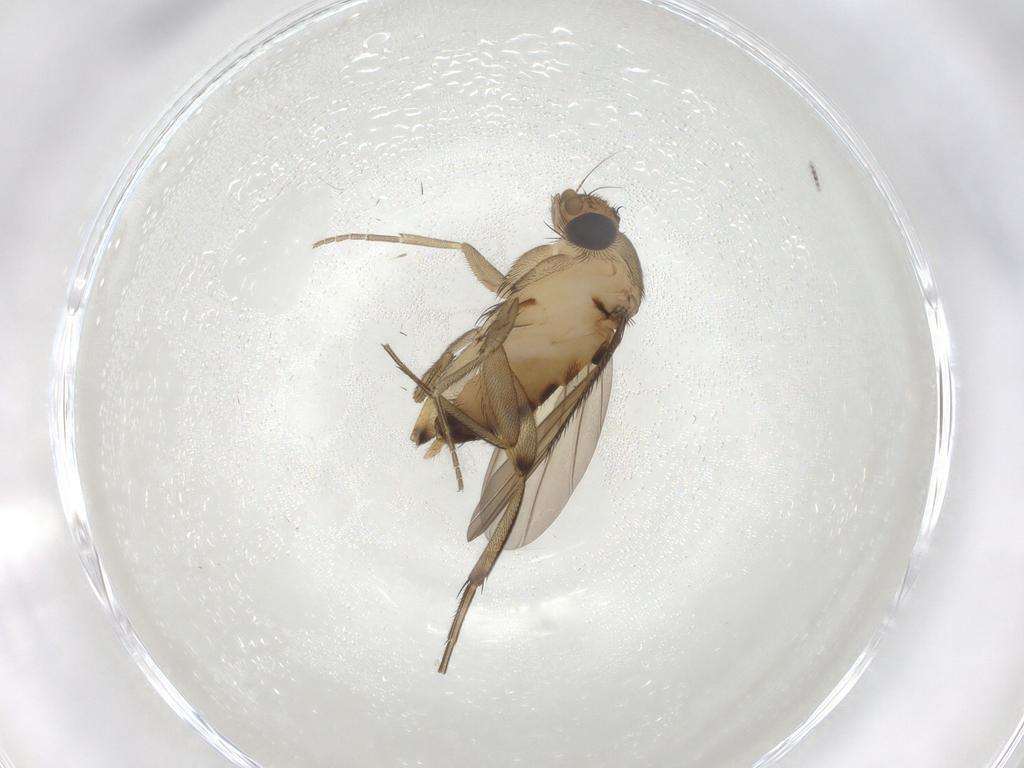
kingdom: Animalia
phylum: Arthropoda
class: Insecta
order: Diptera
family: Phoridae
